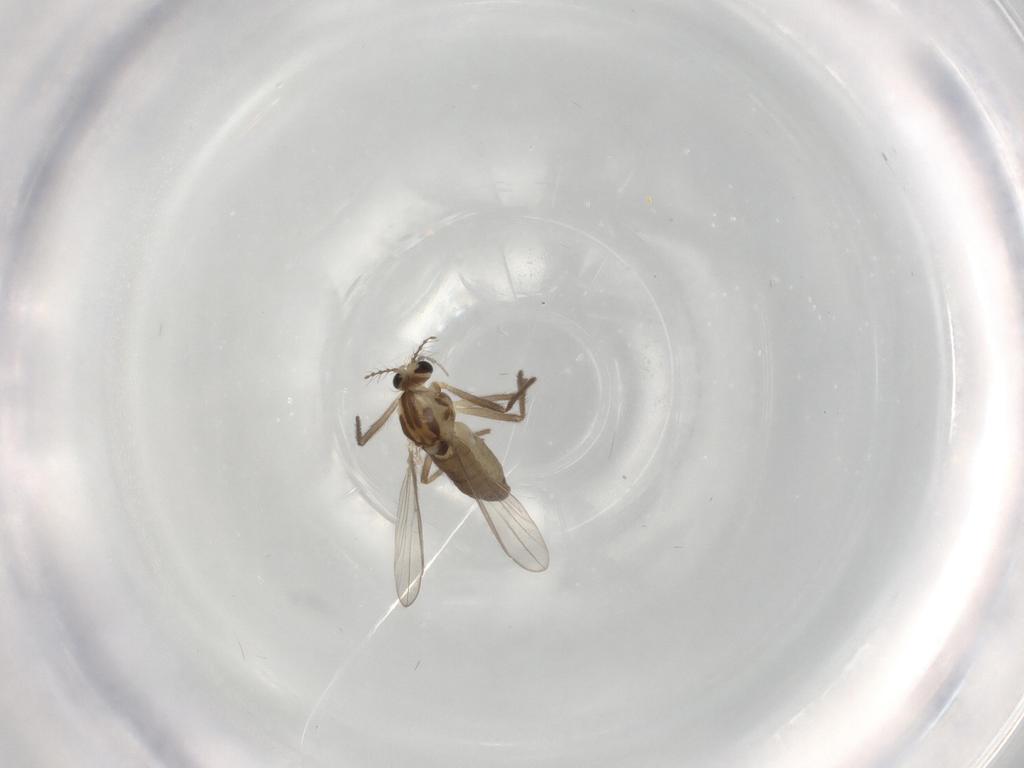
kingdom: Animalia
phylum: Arthropoda
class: Insecta
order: Diptera
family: Chironomidae
